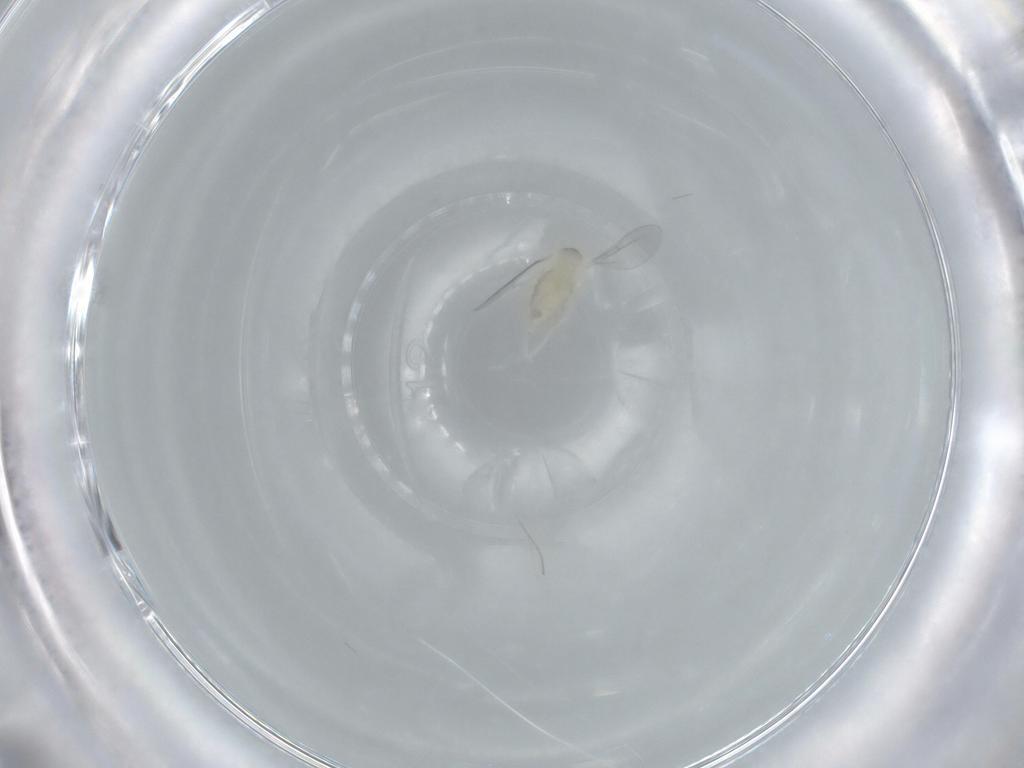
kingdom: Animalia
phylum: Arthropoda
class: Insecta
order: Diptera
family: Cecidomyiidae
